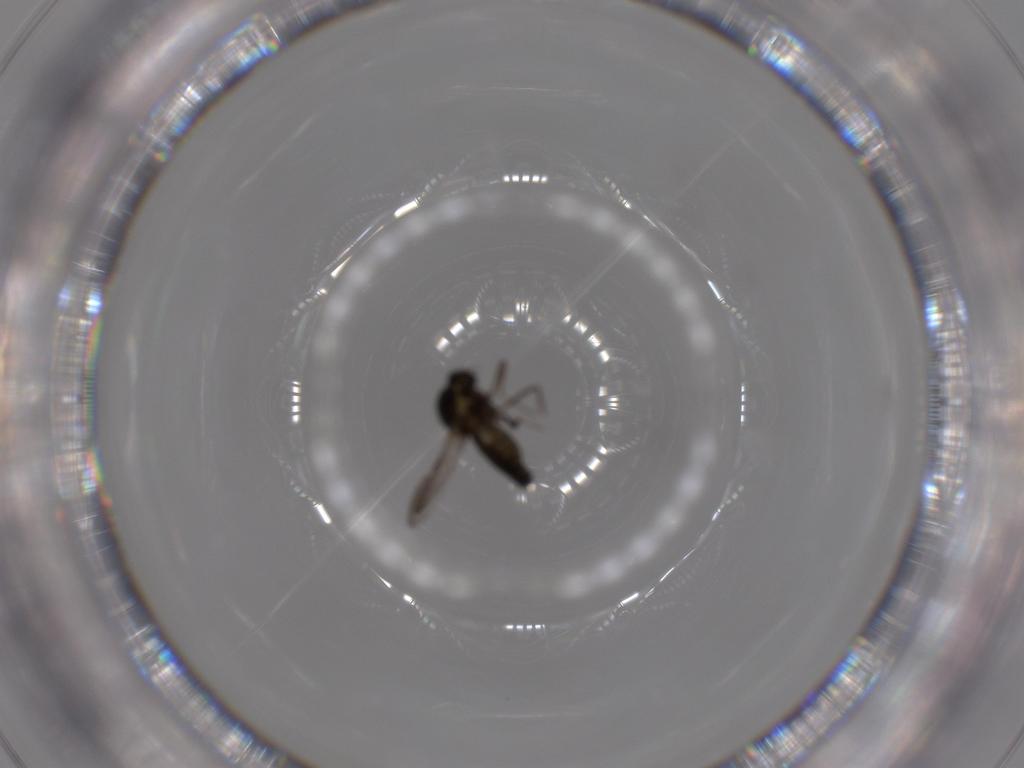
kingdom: Animalia
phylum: Arthropoda
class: Insecta
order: Diptera
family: Ceratopogonidae
